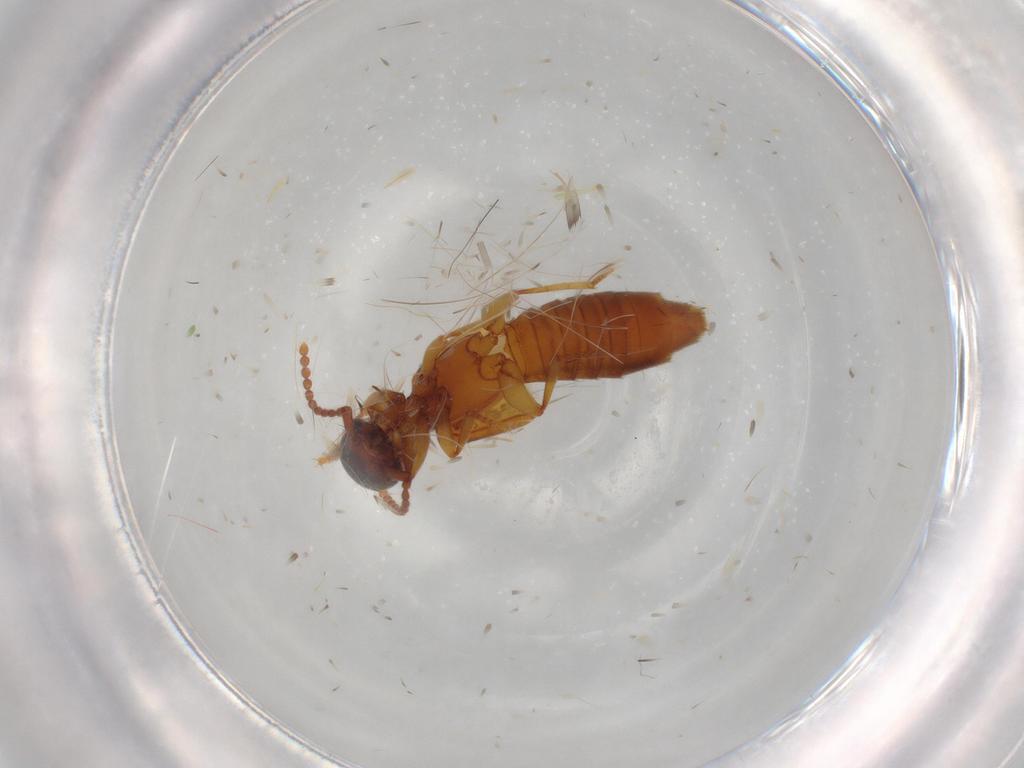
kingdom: Animalia
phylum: Arthropoda
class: Insecta
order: Coleoptera
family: Staphylinidae
